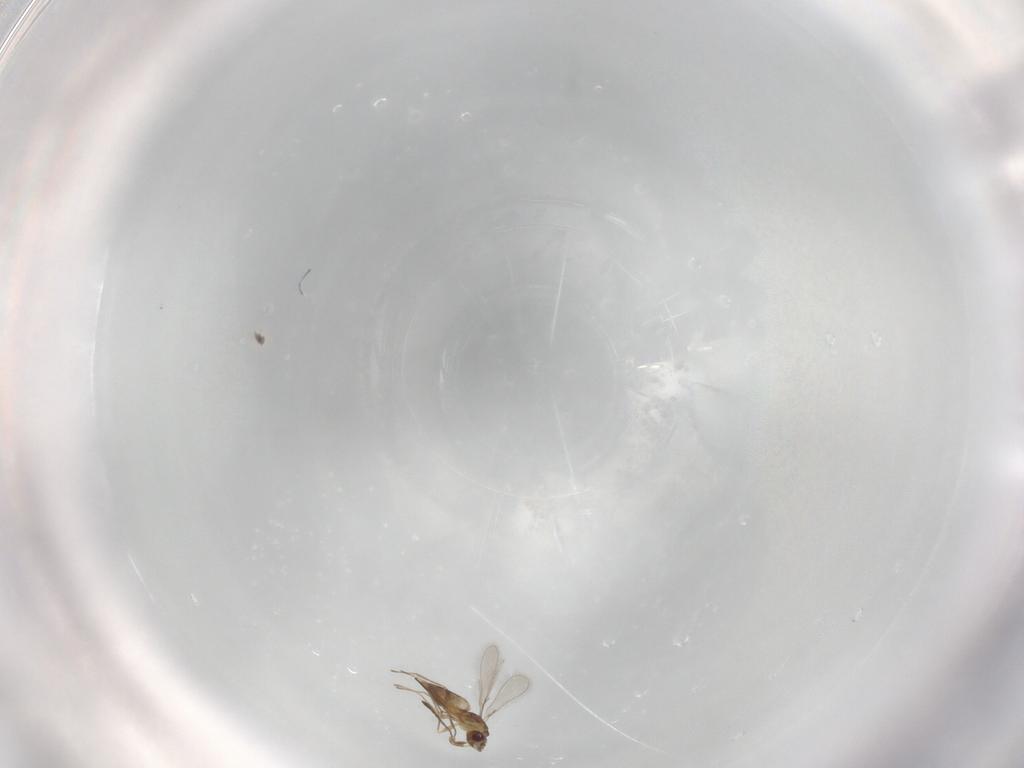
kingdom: Animalia
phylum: Arthropoda
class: Insecta
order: Hymenoptera
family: Mymaridae
